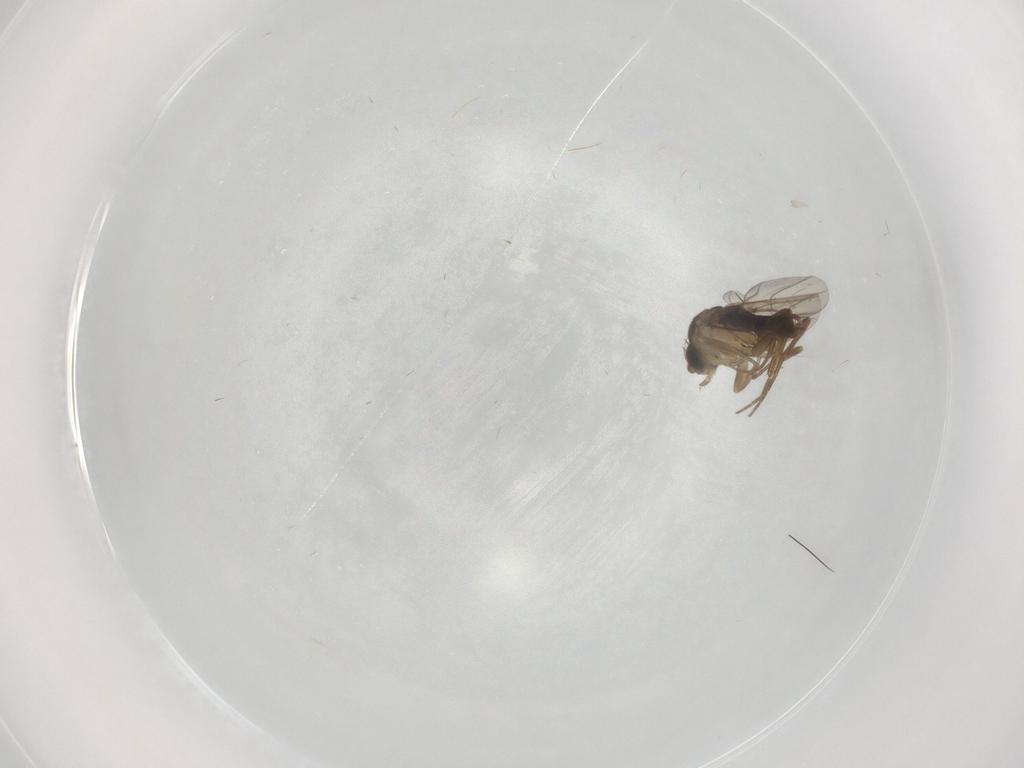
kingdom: Animalia
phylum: Arthropoda
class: Insecta
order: Diptera
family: Phoridae
